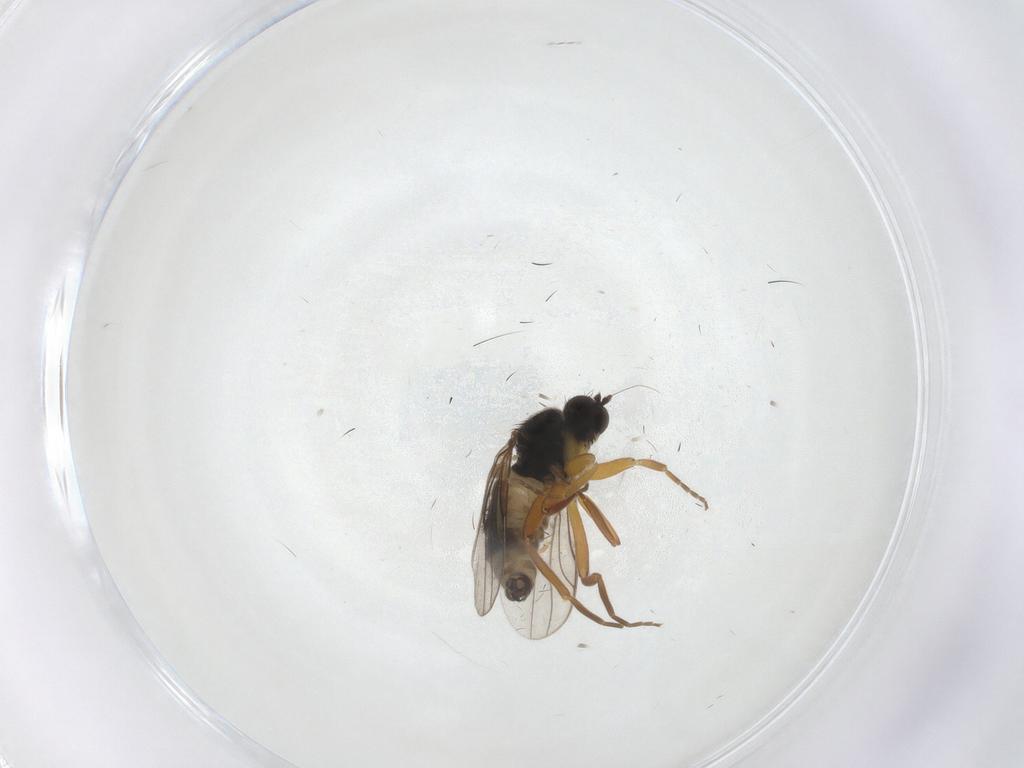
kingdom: Animalia
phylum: Arthropoda
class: Insecta
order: Diptera
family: Hybotidae
